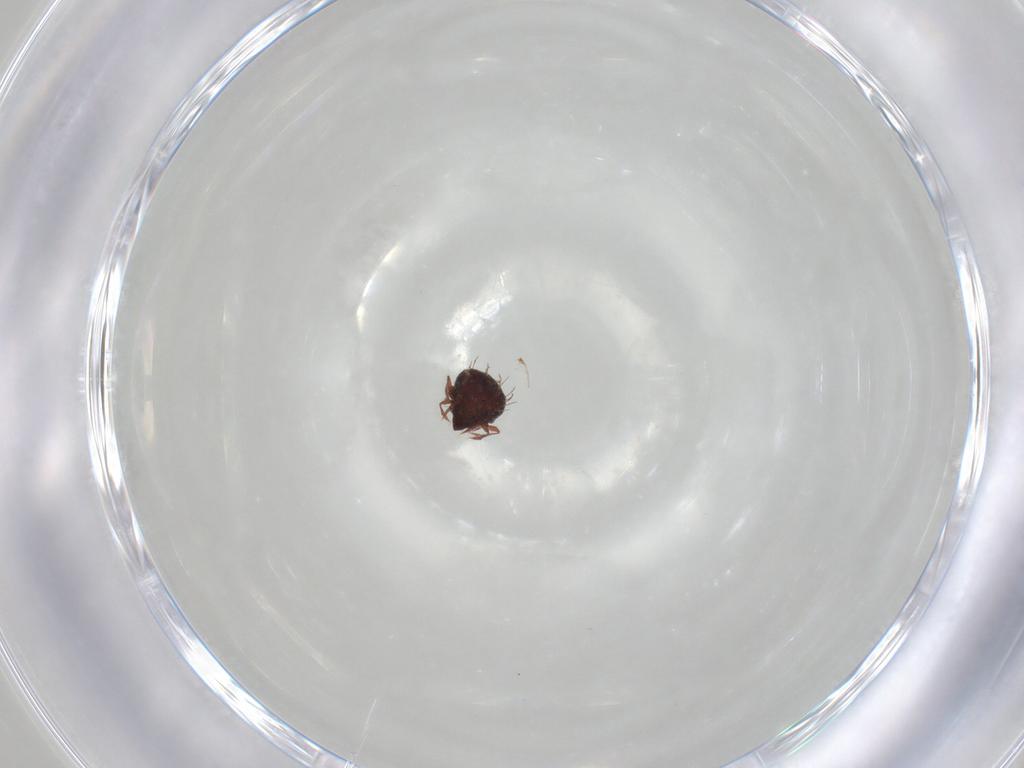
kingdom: Animalia
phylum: Arthropoda
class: Arachnida
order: Sarcoptiformes
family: Caloppiidae
